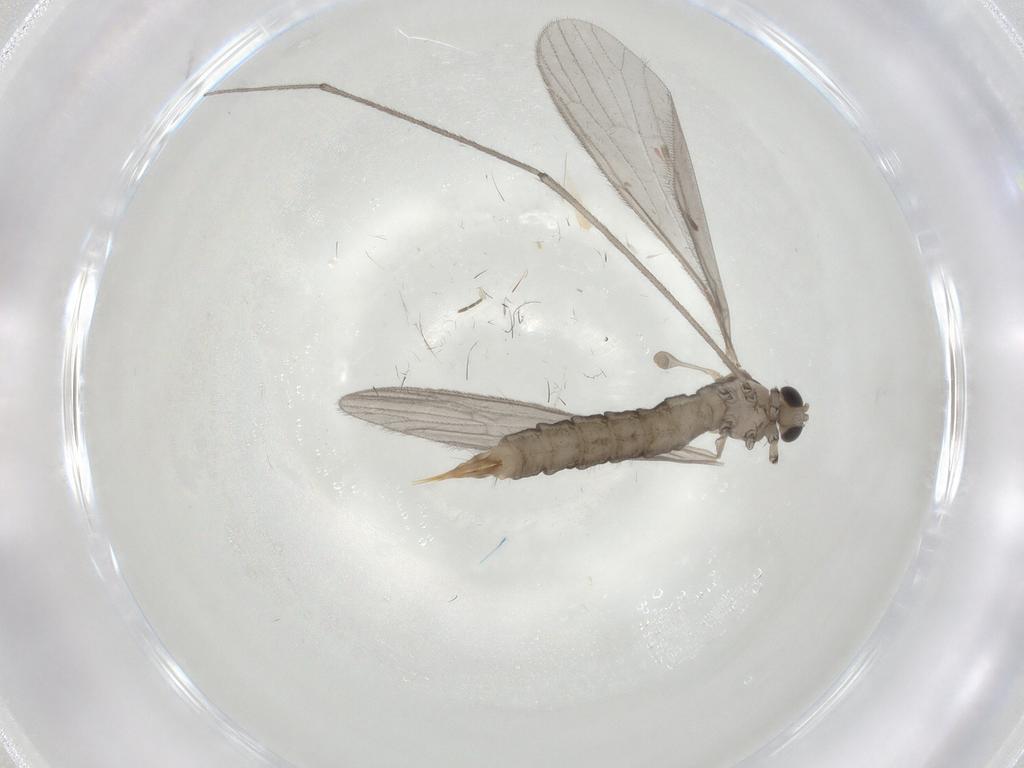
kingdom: Animalia
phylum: Arthropoda
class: Insecta
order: Diptera
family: Limoniidae
